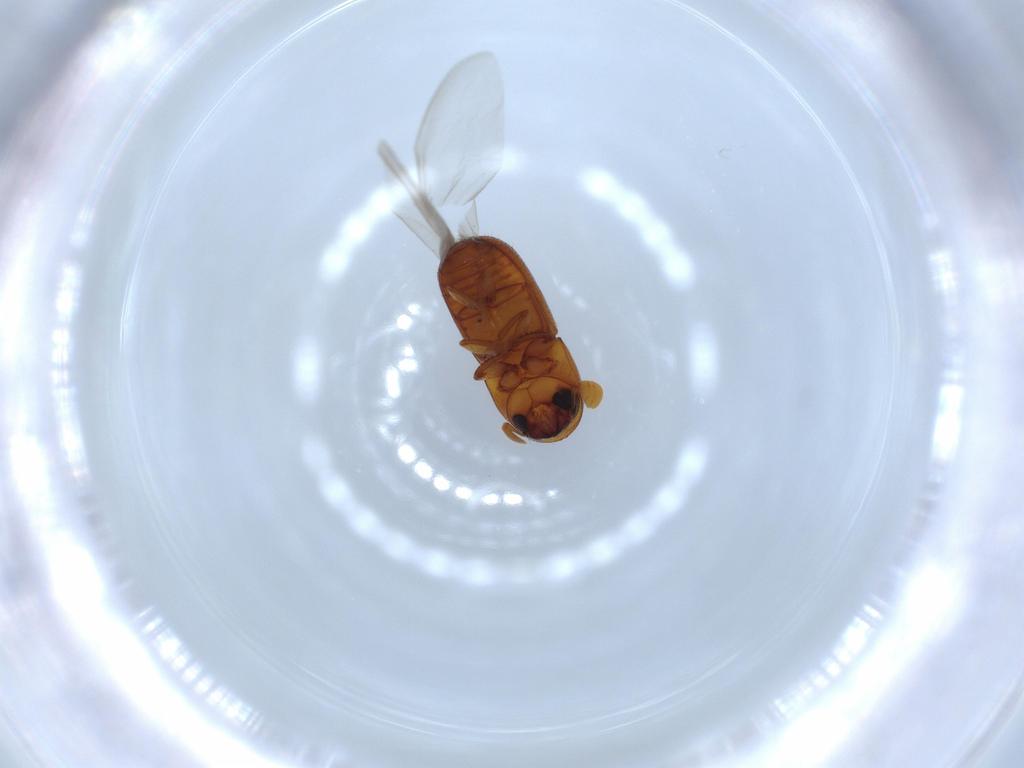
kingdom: Animalia
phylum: Arthropoda
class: Insecta
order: Coleoptera
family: Curculionidae
